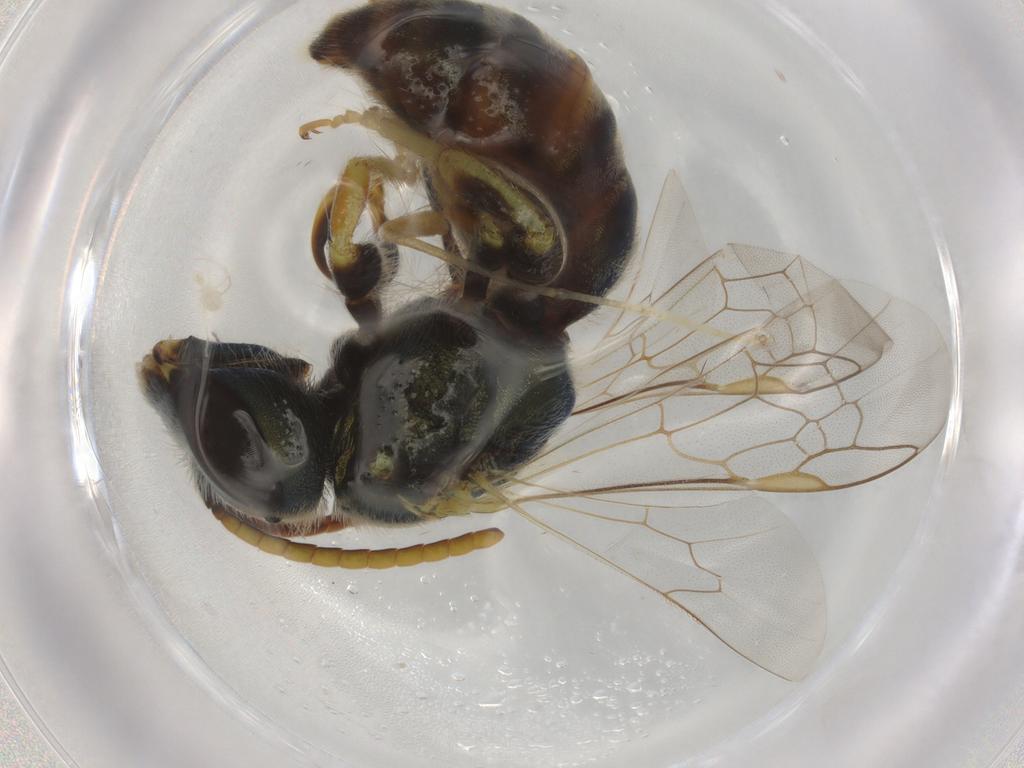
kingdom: Animalia
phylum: Arthropoda
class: Insecta
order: Hymenoptera
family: Halictidae
